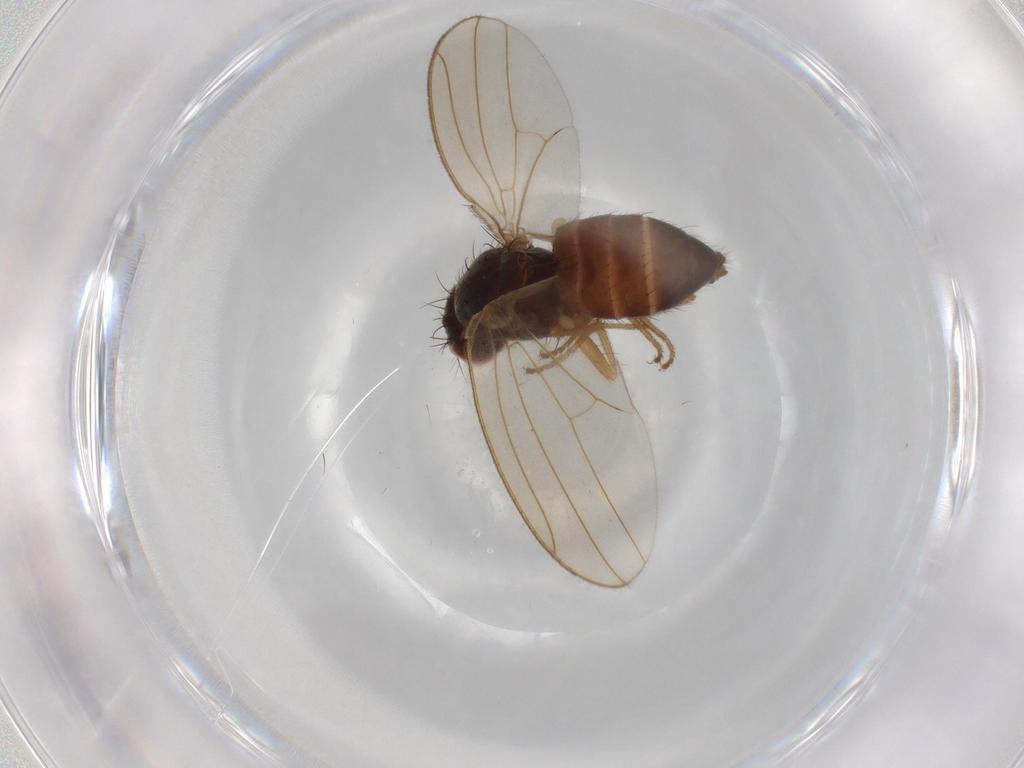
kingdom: Animalia
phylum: Arthropoda
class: Insecta
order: Diptera
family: Drosophilidae
